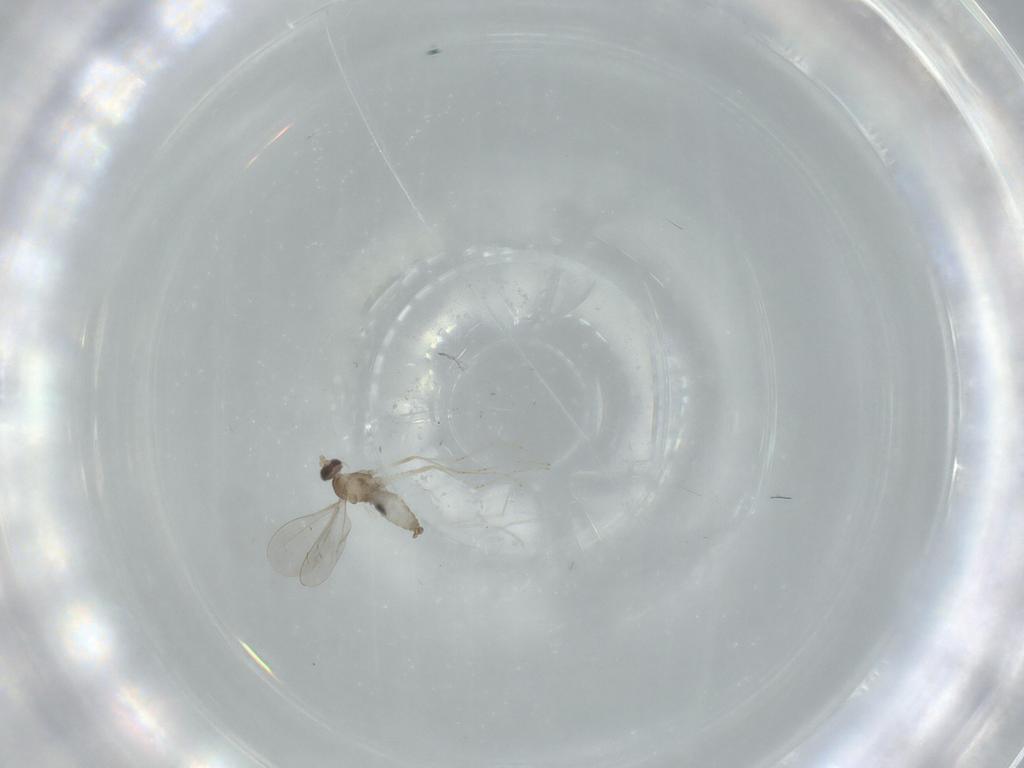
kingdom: Animalia
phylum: Arthropoda
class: Insecta
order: Diptera
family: Cecidomyiidae
